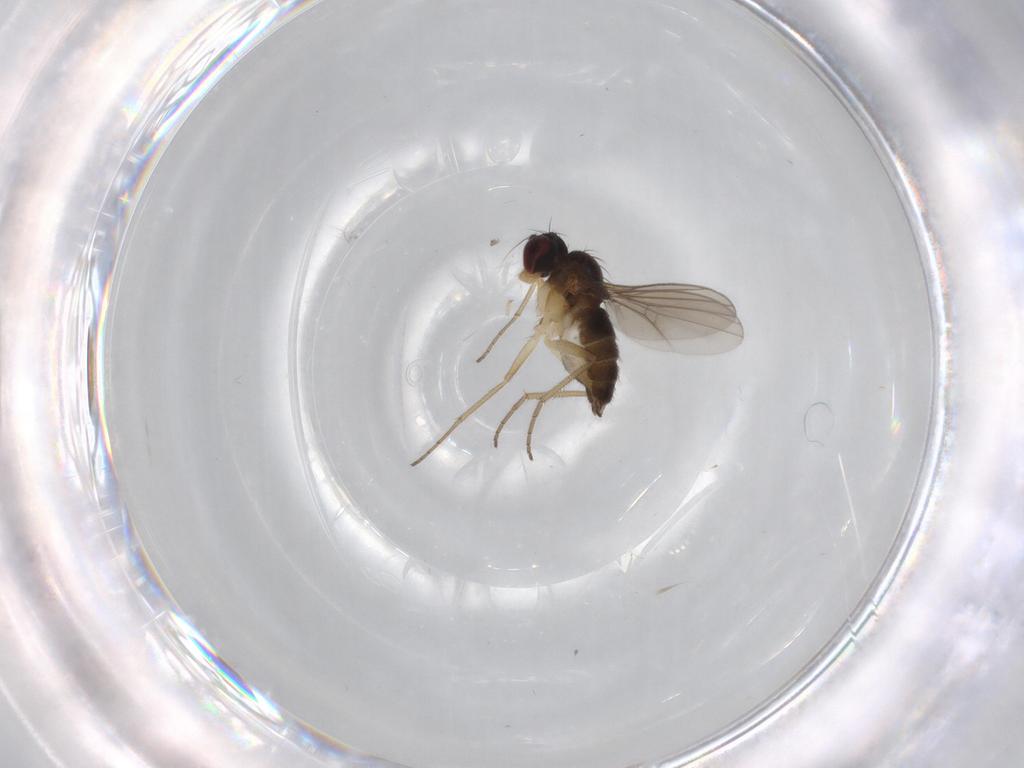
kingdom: Animalia
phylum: Arthropoda
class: Insecta
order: Diptera
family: Dolichopodidae
